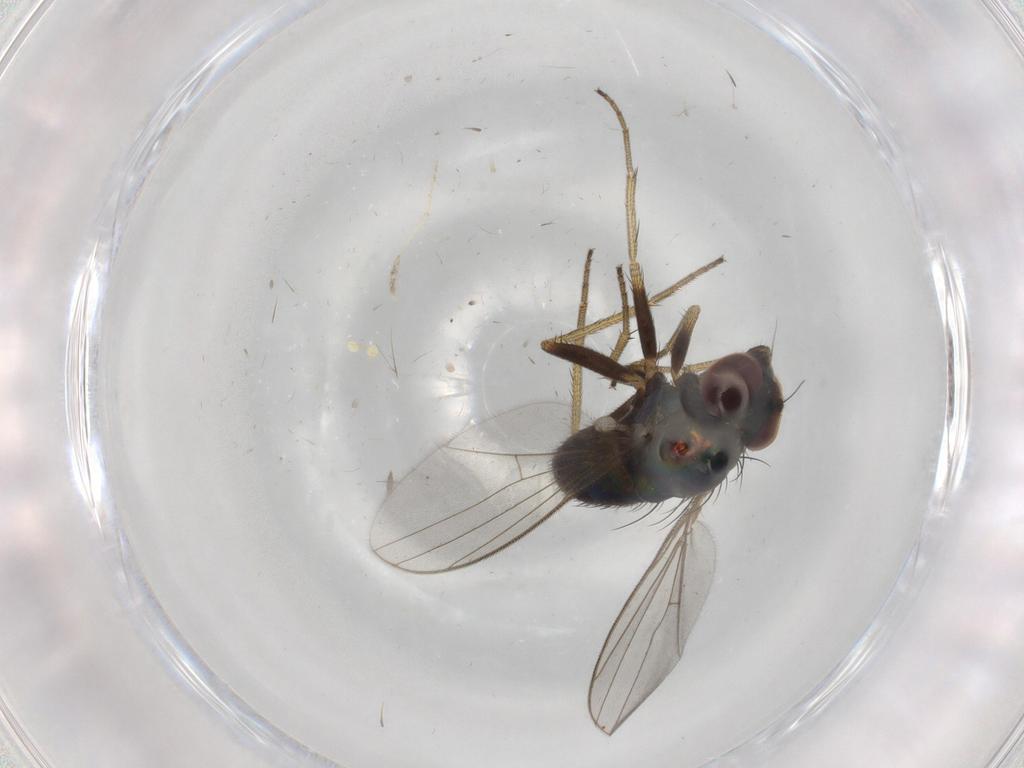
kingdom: Animalia
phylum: Arthropoda
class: Insecta
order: Diptera
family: Cecidomyiidae
